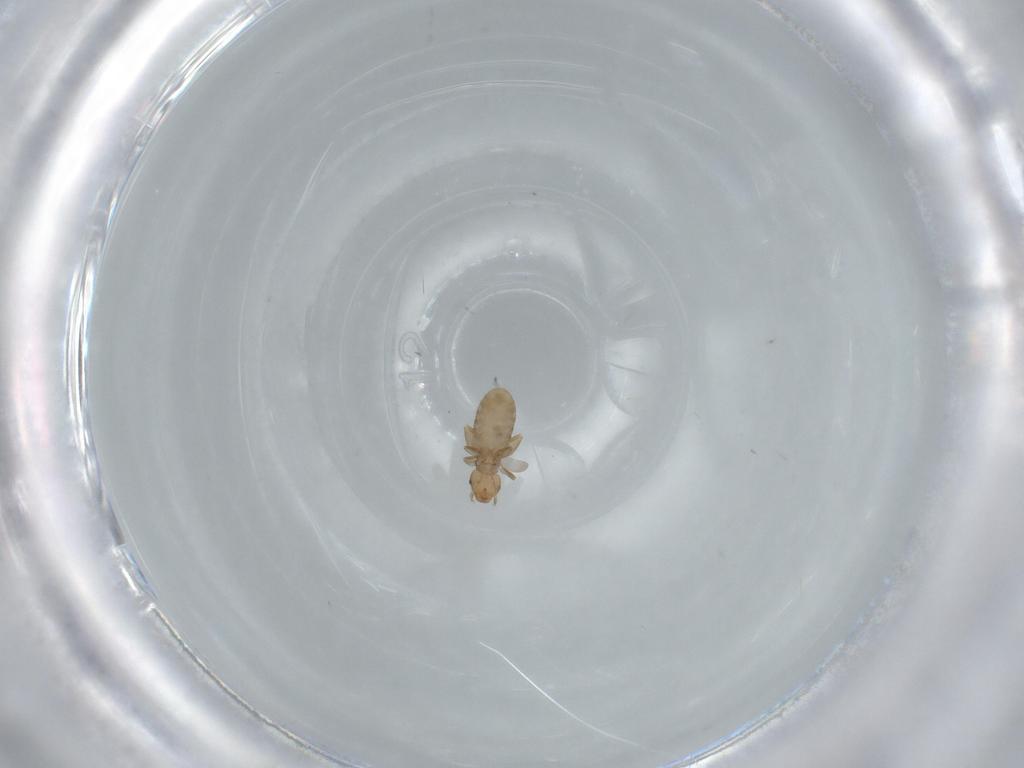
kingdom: Animalia
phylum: Arthropoda
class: Insecta
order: Psocodea
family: Liposcelididae
